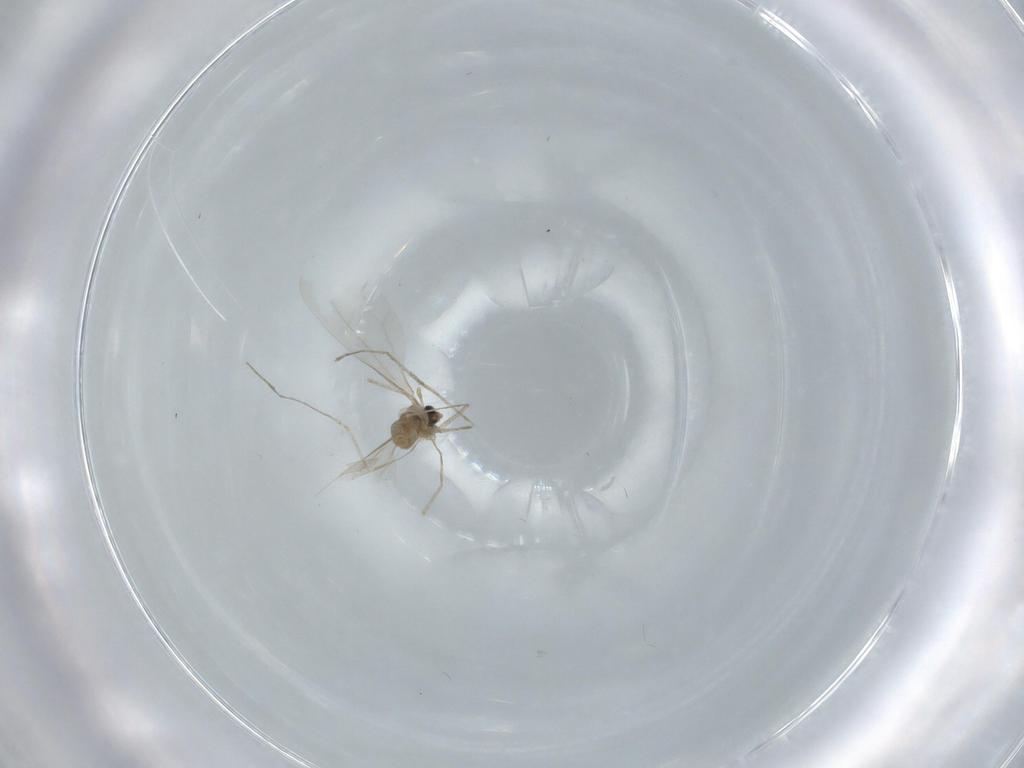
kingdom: Animalia
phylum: Arthropoda
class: Insecta
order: Diptera
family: Cecidomyiidae
